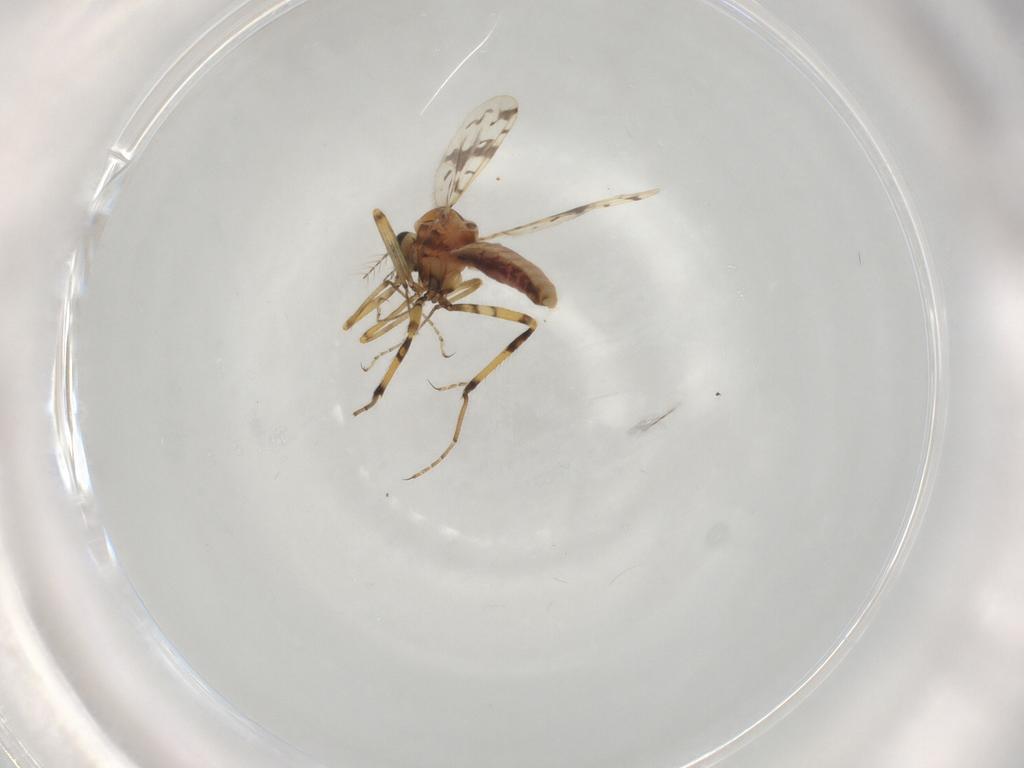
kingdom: Animalia
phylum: Arthropoda
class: Insecta
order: Diptera
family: Ceratopogonidae
